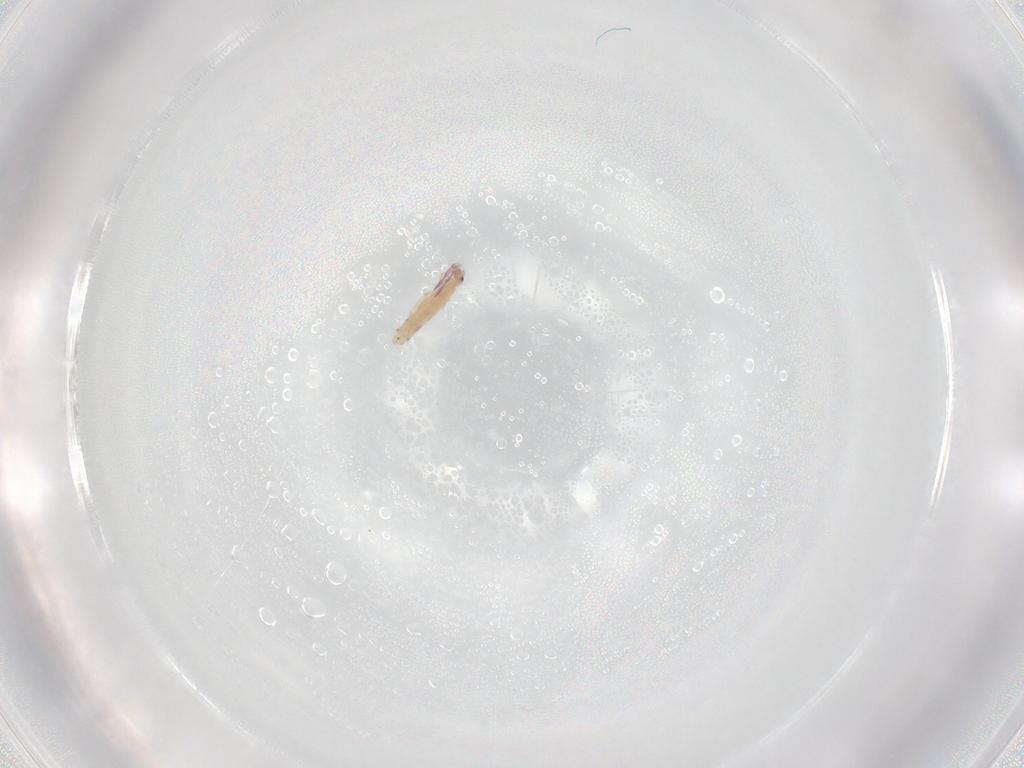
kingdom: Animalia
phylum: Arthropoda
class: Collembola
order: Entomobryomorpha
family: Entomobryidae
